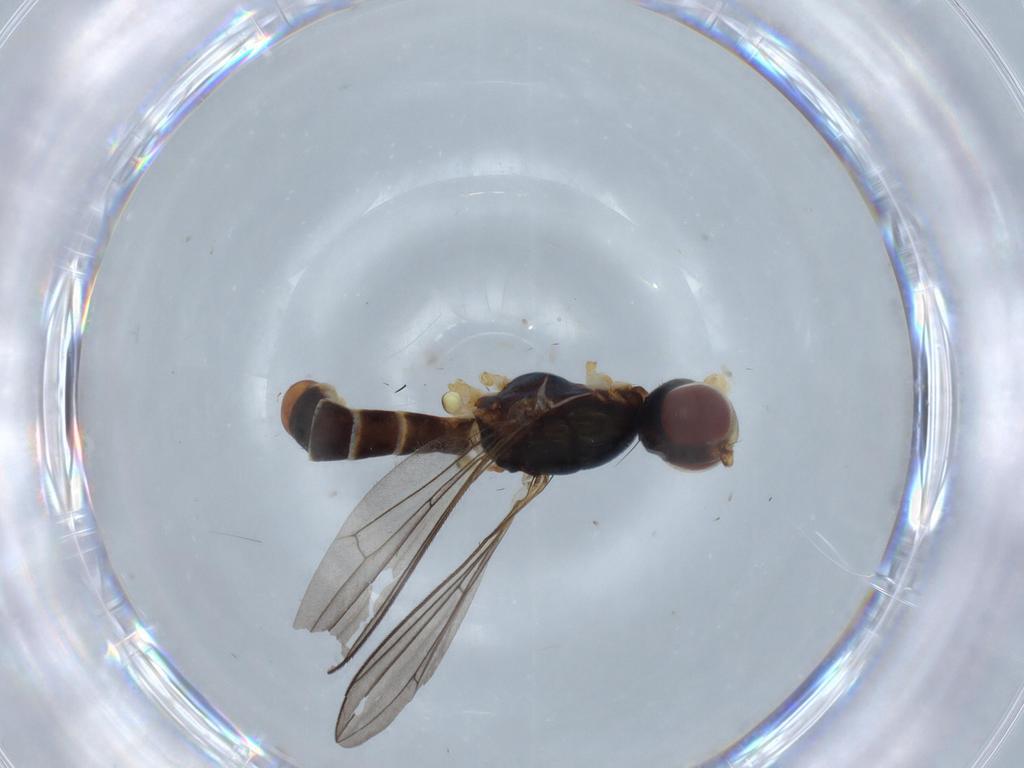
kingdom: Animalia
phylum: Arthropoda
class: Insecta
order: Diptera
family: Micropezidae
